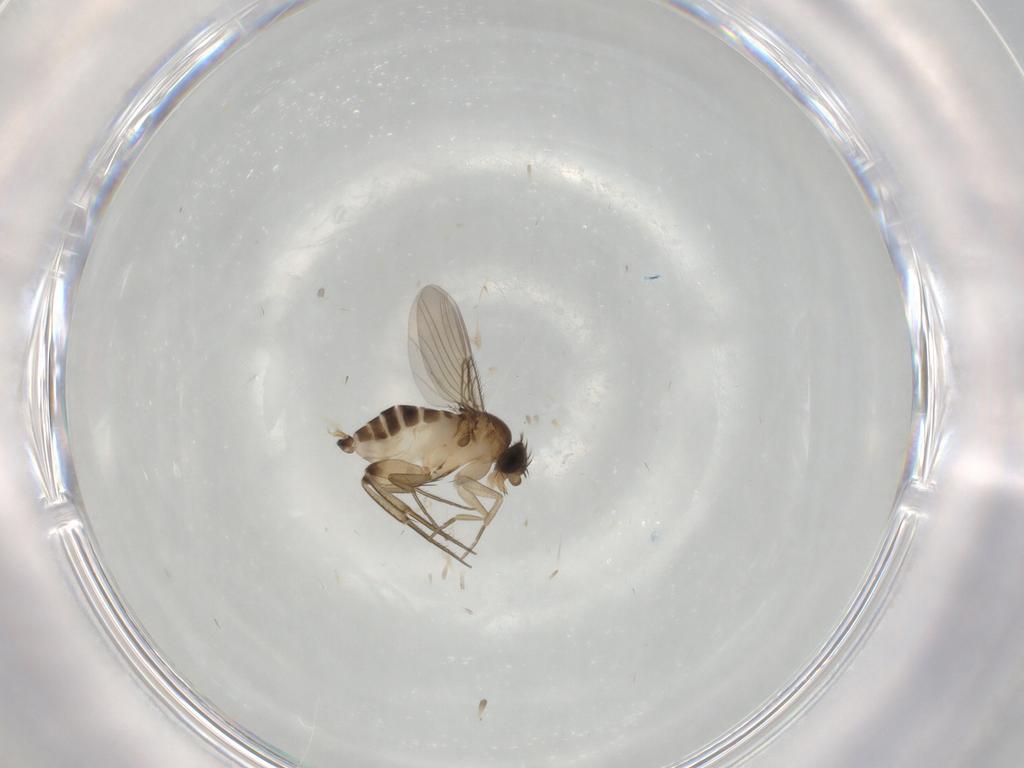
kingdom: Animalia
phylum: Arthropoda
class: Insecta
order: Diptera
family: Phoridae
